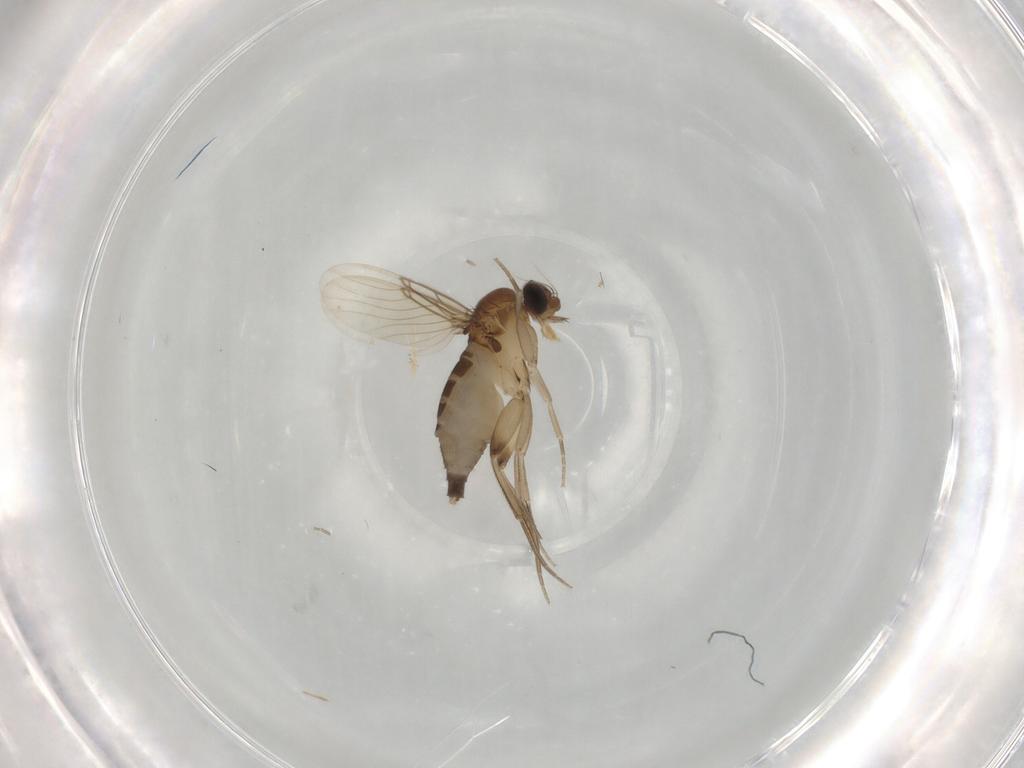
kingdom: Animalia
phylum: Arthropoda
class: Insecta
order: Diptera
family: Phoridae
